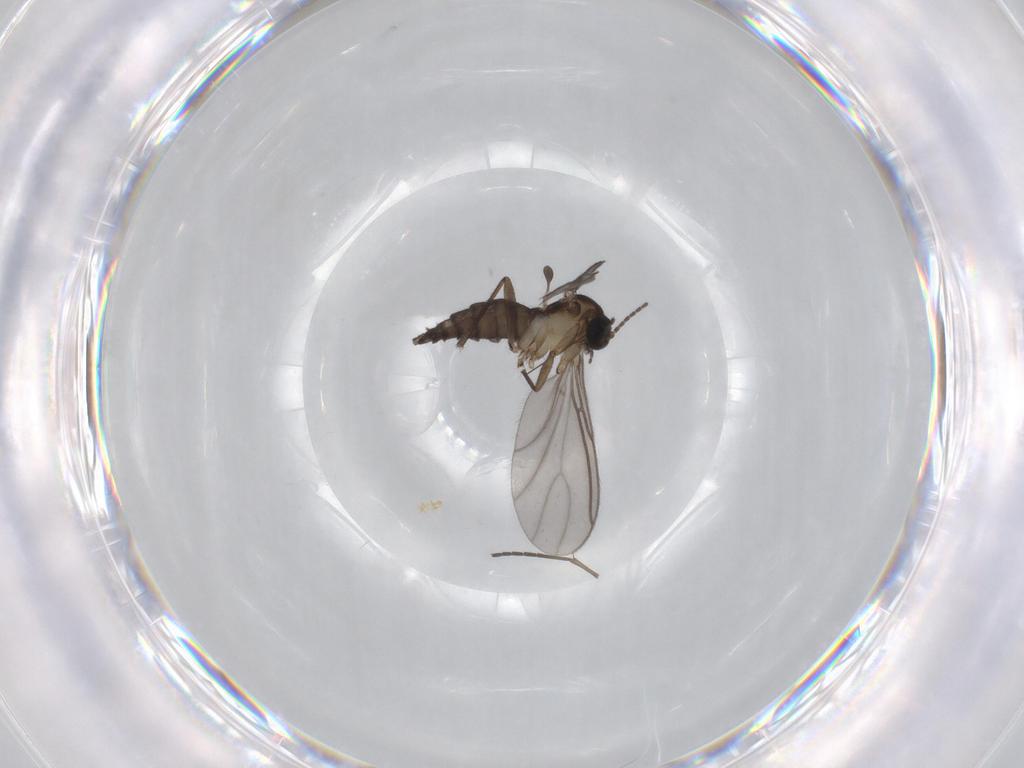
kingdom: Animalia
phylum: Arthropoda
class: Insecta
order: Diptera
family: Sciaridae
